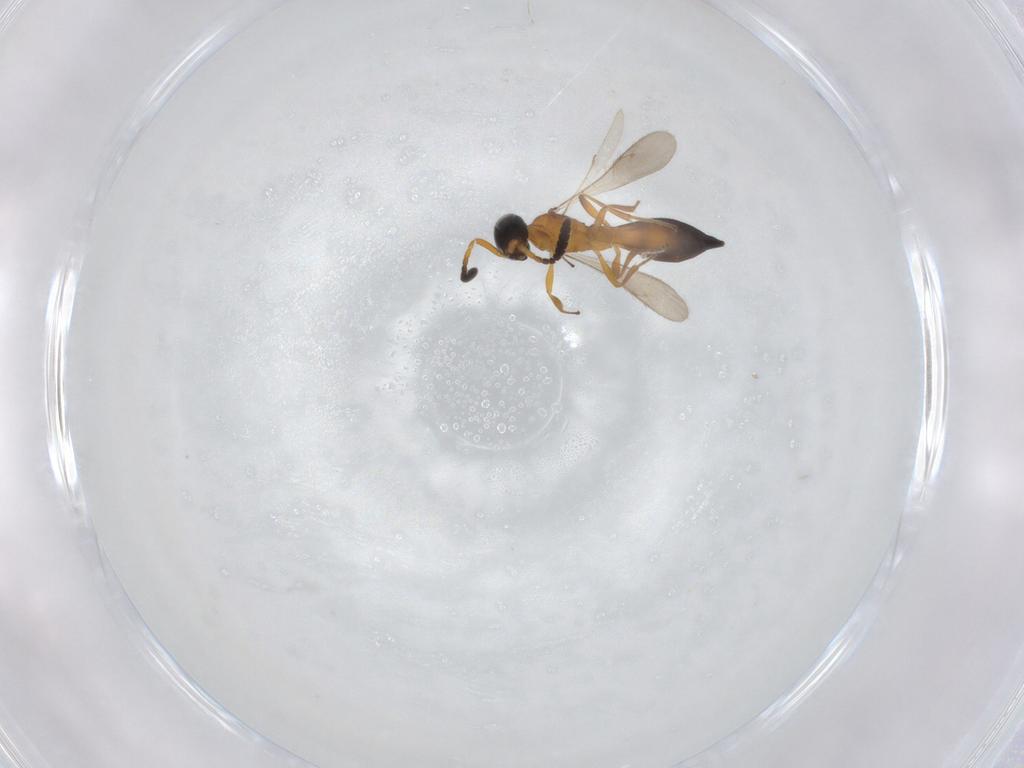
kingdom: Animalia
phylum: Arthropoda
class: Insecta
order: Hymenoptera
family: Scelionidae
